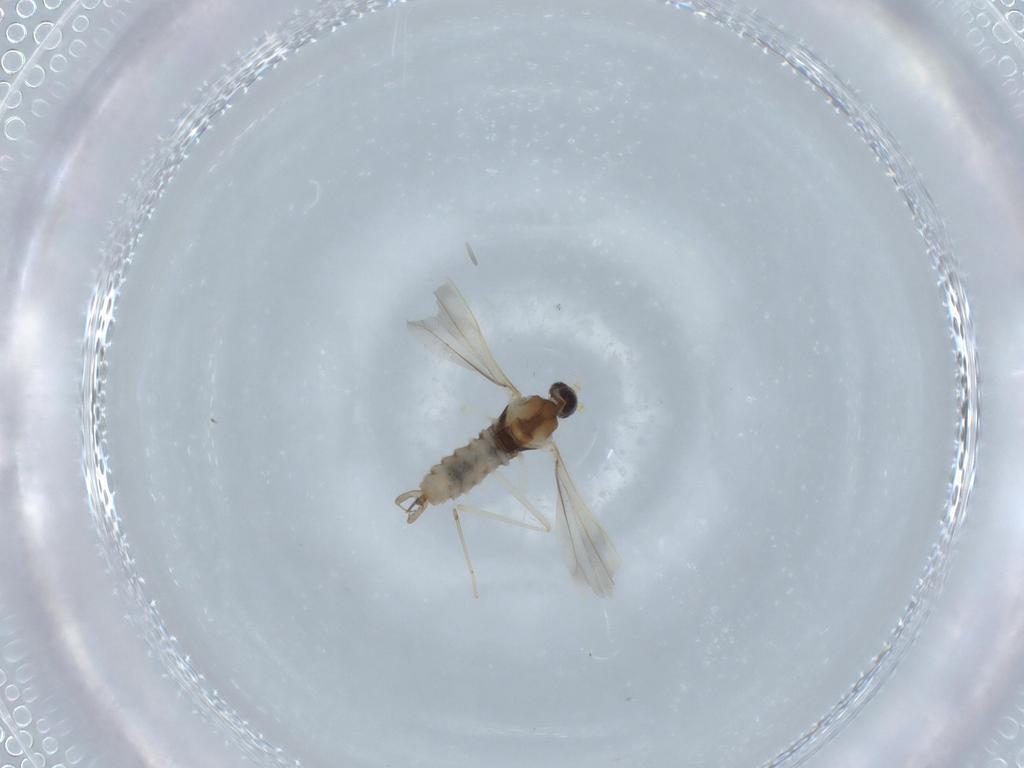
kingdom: Animalia
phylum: Arthropoda
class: Insecta
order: Diptera
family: Cecidomyiidae
